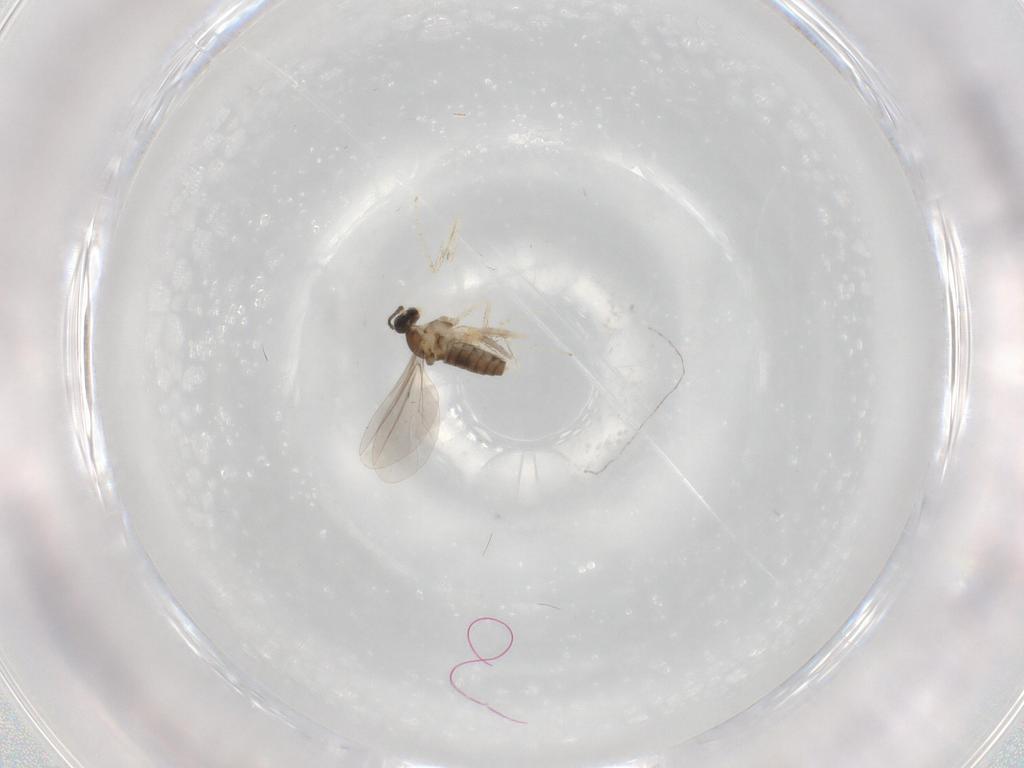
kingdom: Animalia
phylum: Arthropoda
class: Insecta
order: Diptera
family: Cecidomyiidae
